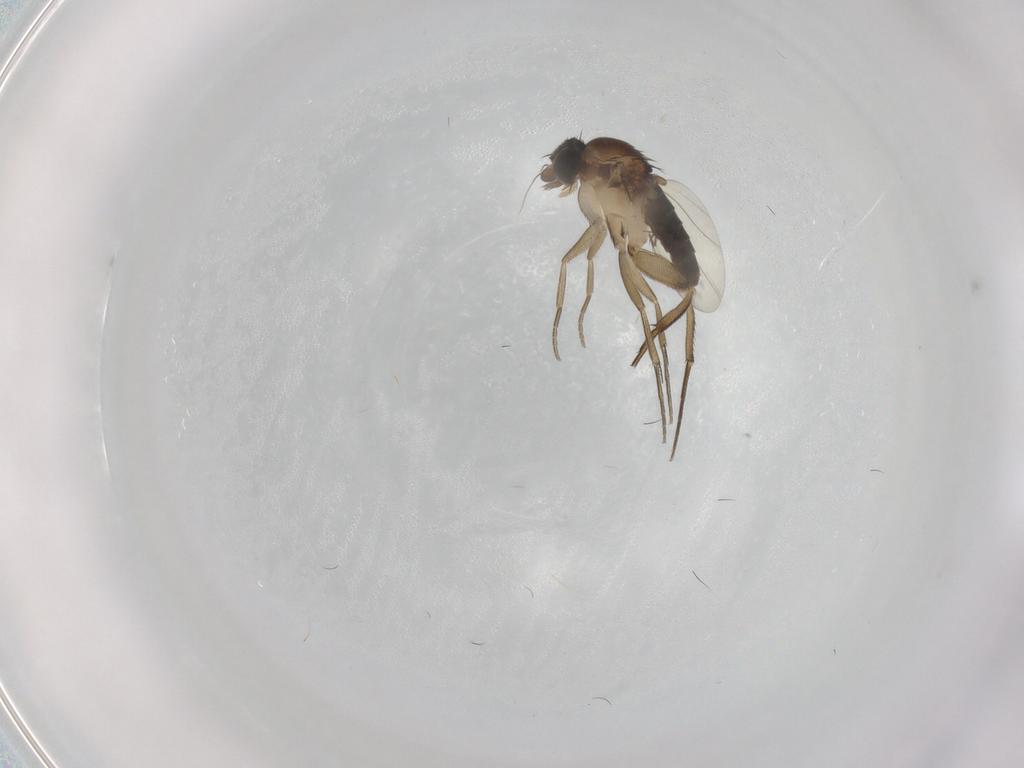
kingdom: Animalia
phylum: Arthropoda
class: Insecta
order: Diptera
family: Phoridae
